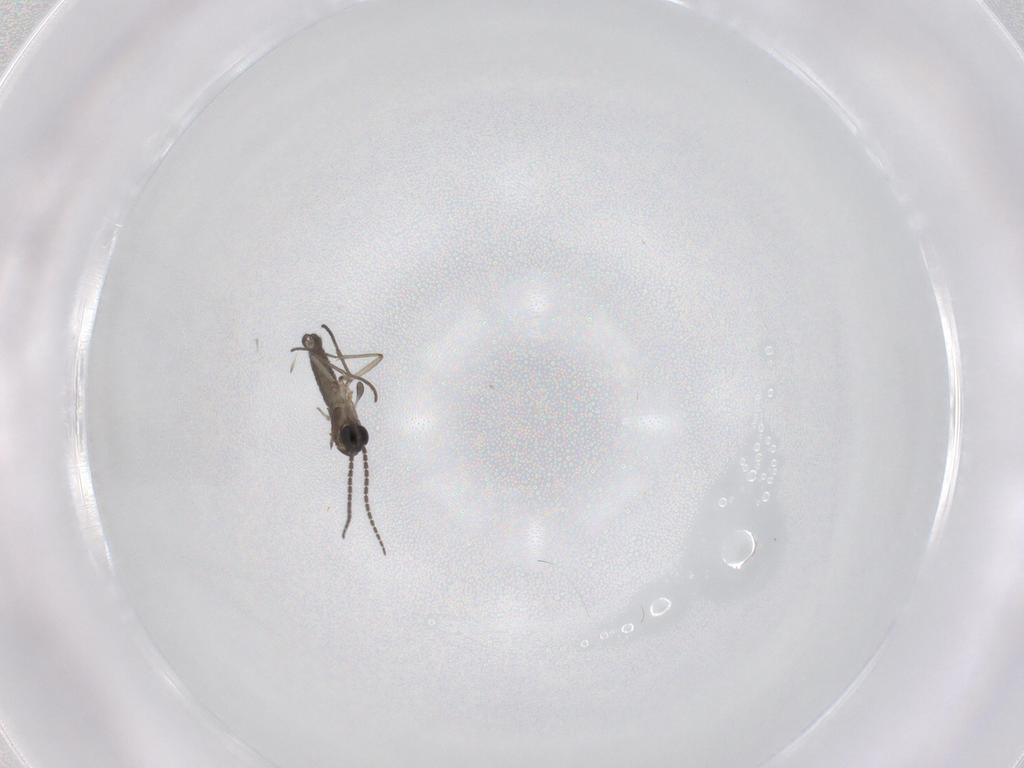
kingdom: Animalia
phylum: Arthropoda
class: Insecta
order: Diptera
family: Sciaridae
